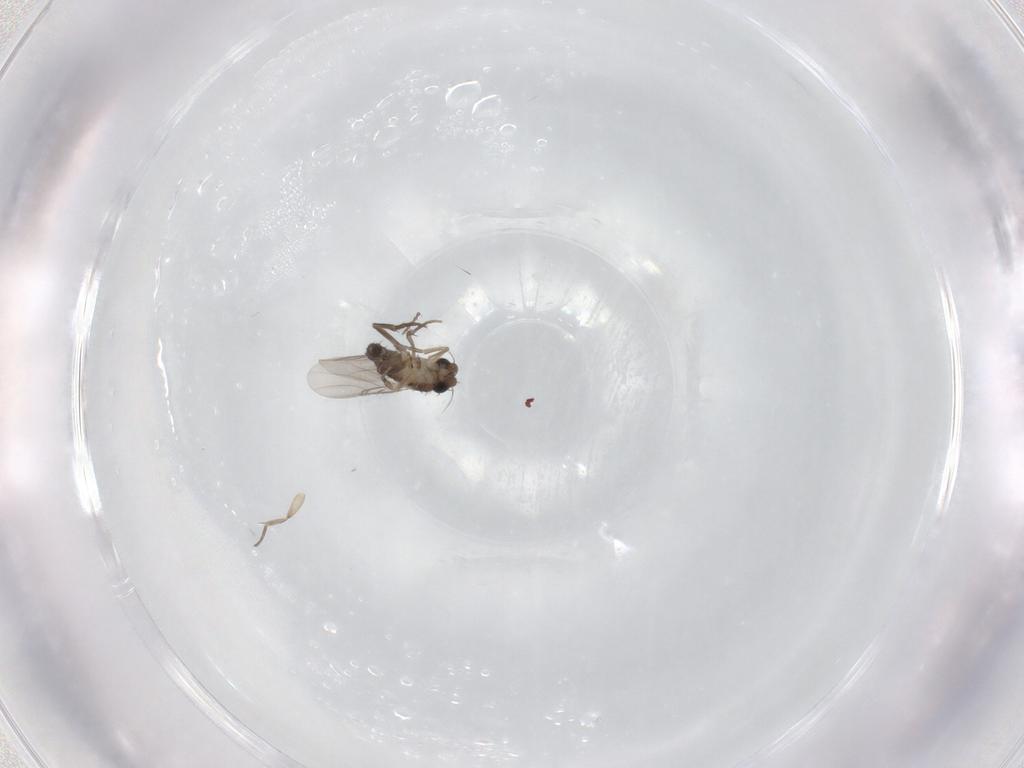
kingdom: Animalia
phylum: Arthropoda
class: Insecta
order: Diptera
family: Phoridae
